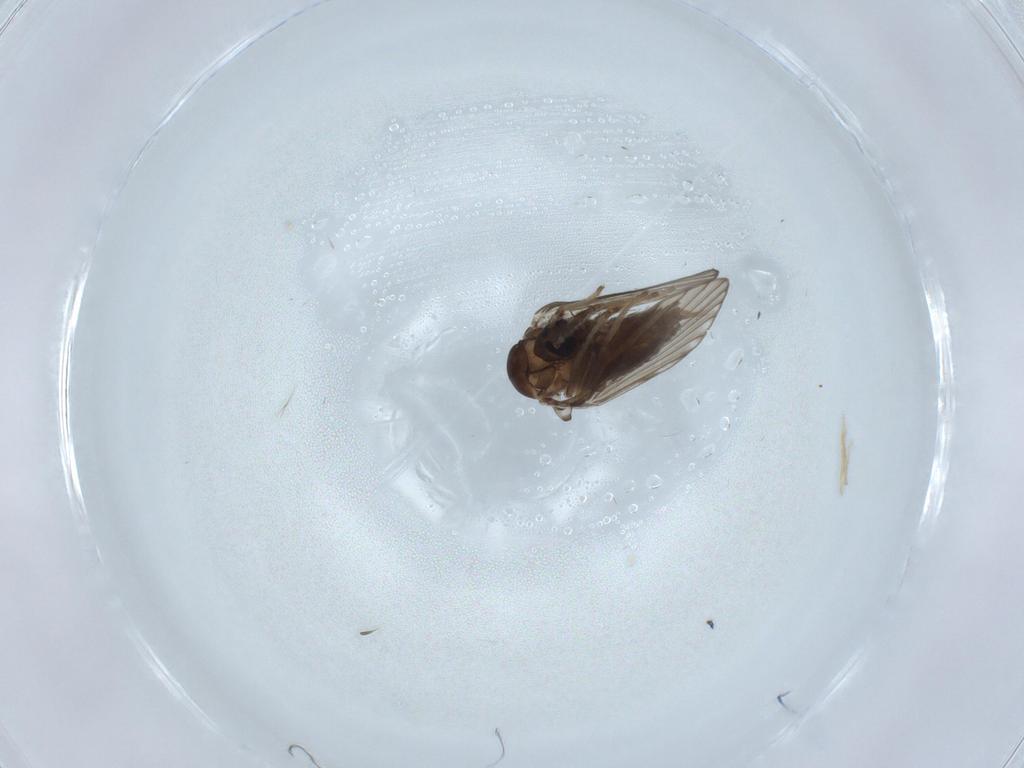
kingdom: Animalia
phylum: Arthropoda
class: Insecta
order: Diptera
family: Psychodidae
